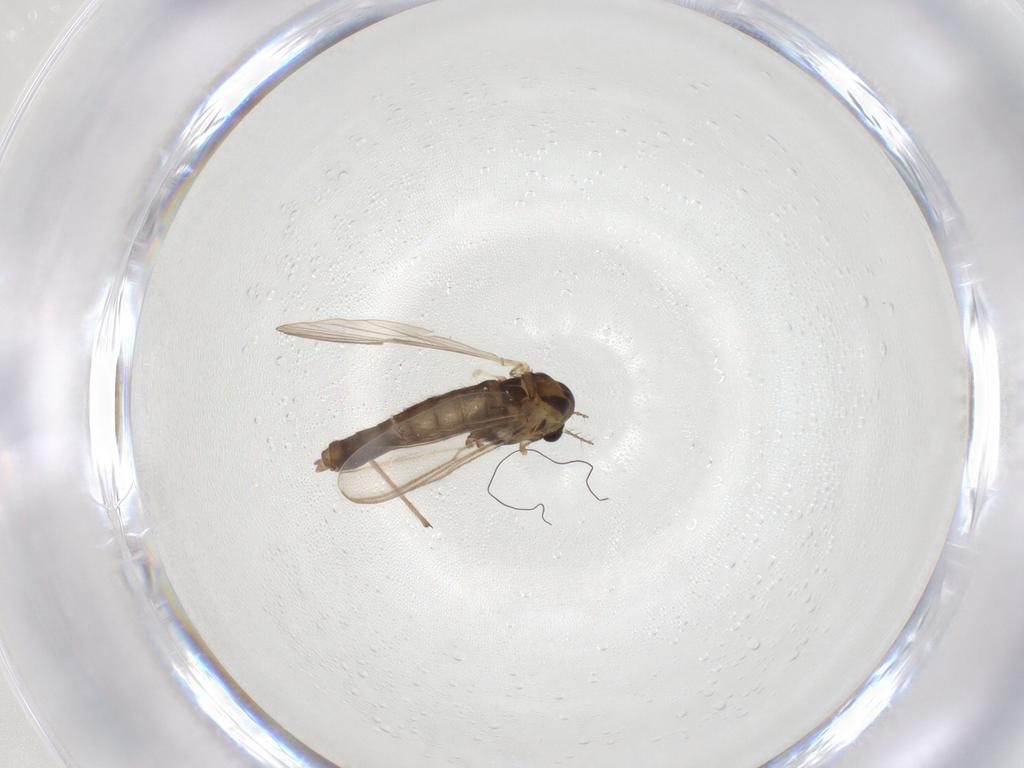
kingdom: Animalia
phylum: Arthropoda
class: Insecta
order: Diptera
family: Chironomidae
